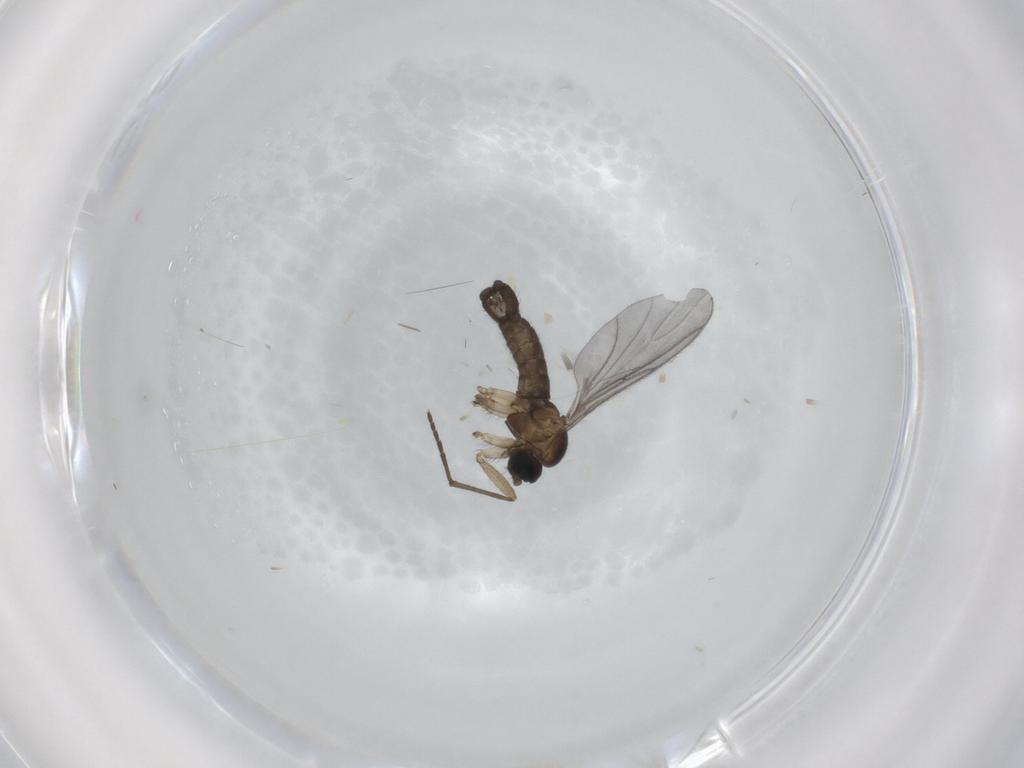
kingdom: Animalia
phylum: Arthropoda
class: Insecta
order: Diptera
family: Sciaridae
